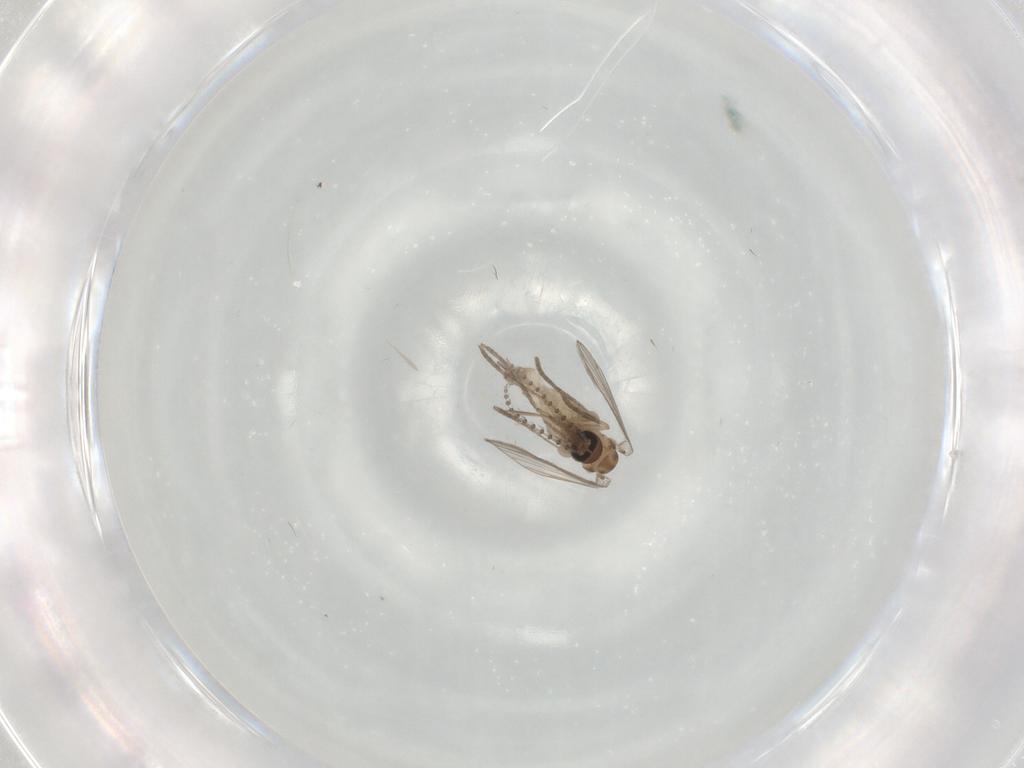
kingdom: Animalia
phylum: Arthropoda
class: Insecta
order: Diptera
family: Psychodidae
